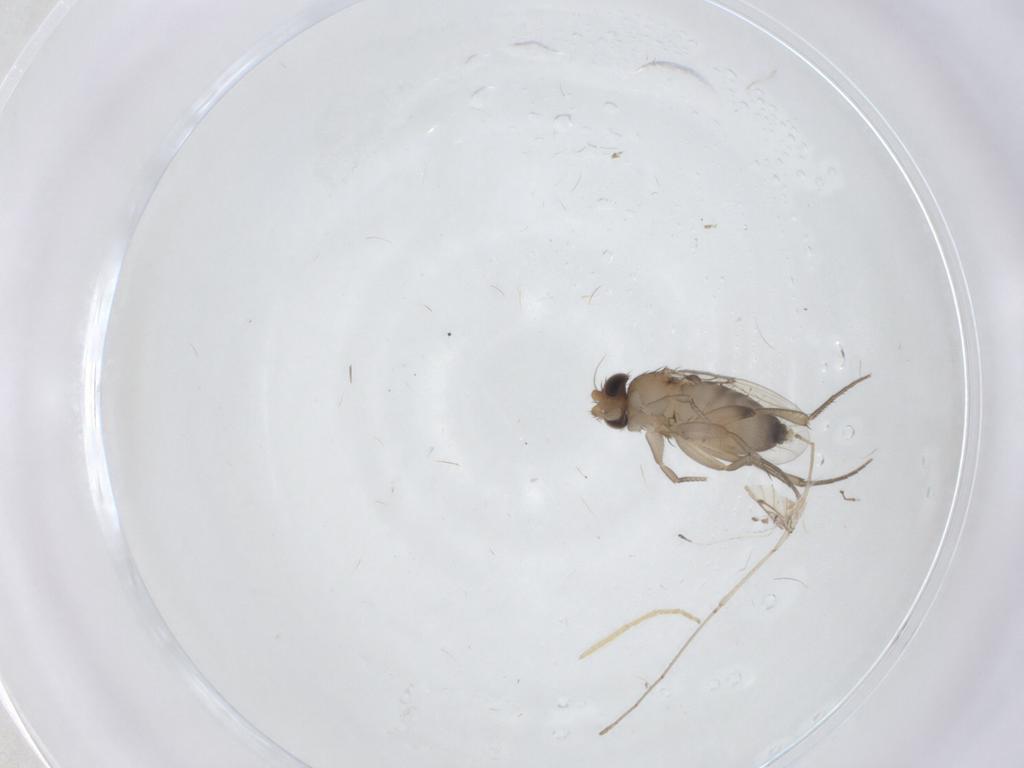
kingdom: Animalia
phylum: Arthropoda
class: Insecta
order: Diptera
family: Phoridae
